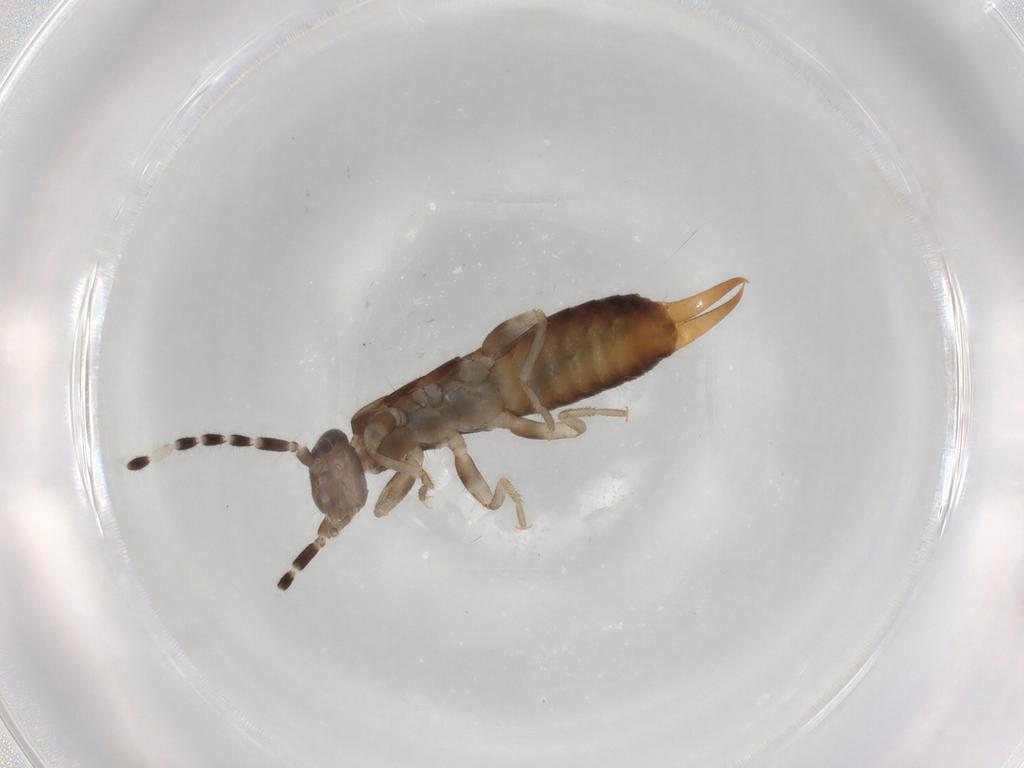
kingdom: Animalia
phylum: Arthropoda
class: Insecta
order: Dermaptera
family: Anisolabididae
